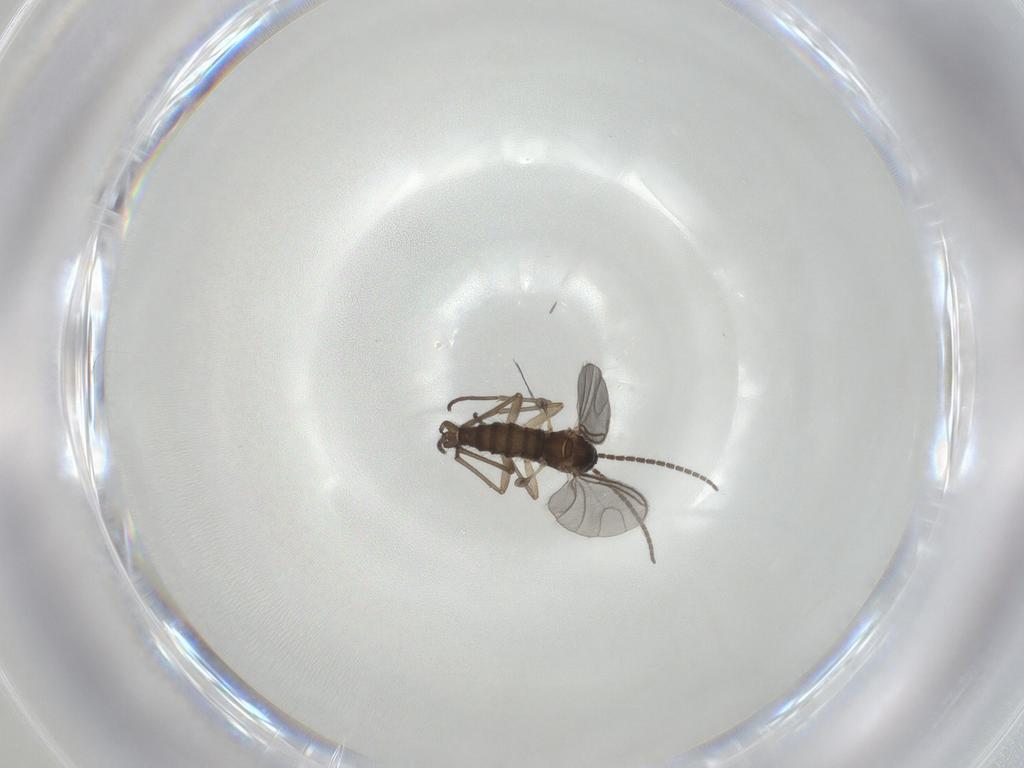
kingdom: Animalia
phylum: Arthropoda
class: Insecta
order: Diptera
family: Sciaridae
